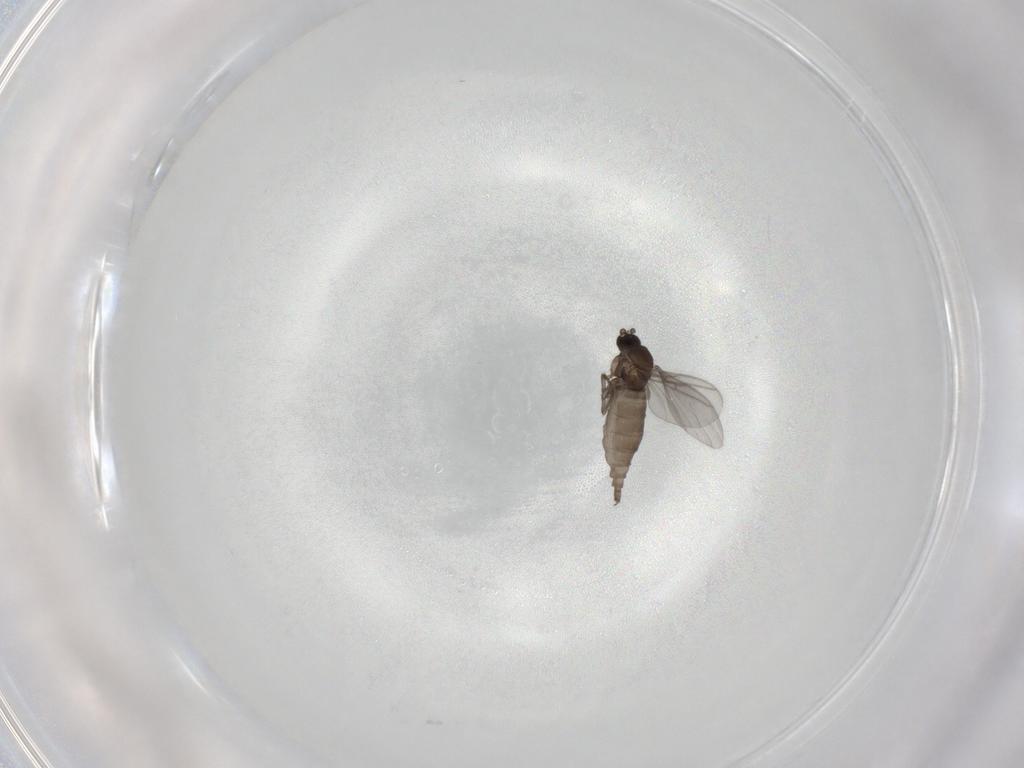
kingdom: Animalia
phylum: Arthropoda
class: Insecta
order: Diptera
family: Sciaridae
